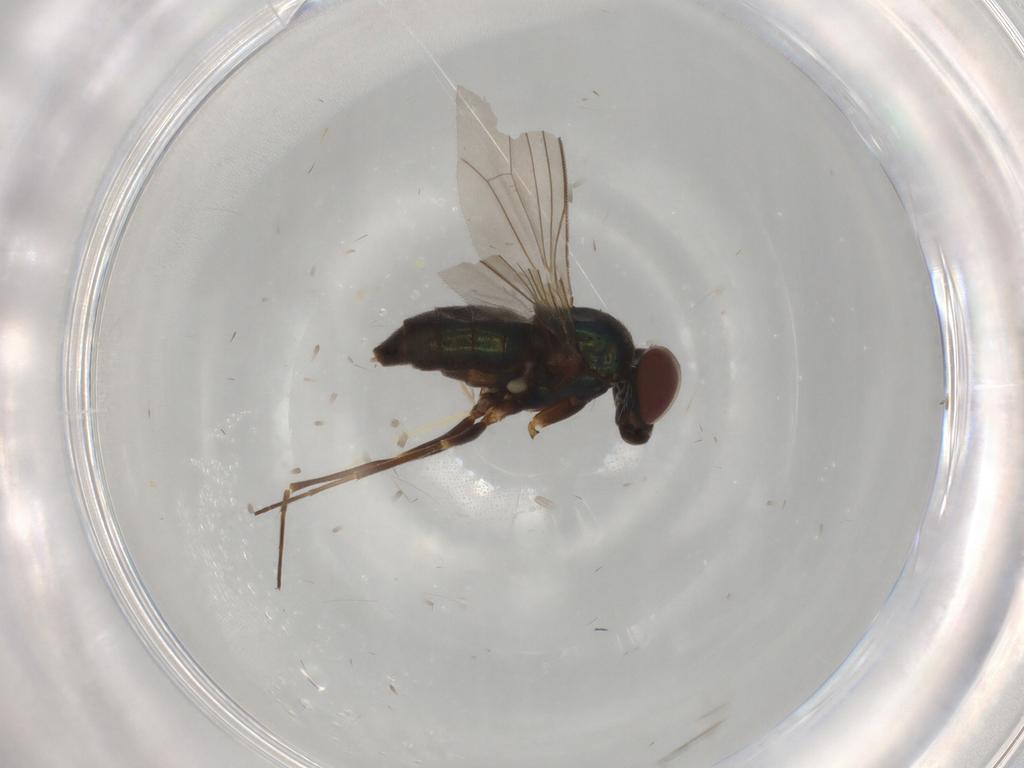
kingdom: Animalia
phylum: Arthropoda
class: Insecta
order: Diptera
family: Dolichopodidae
